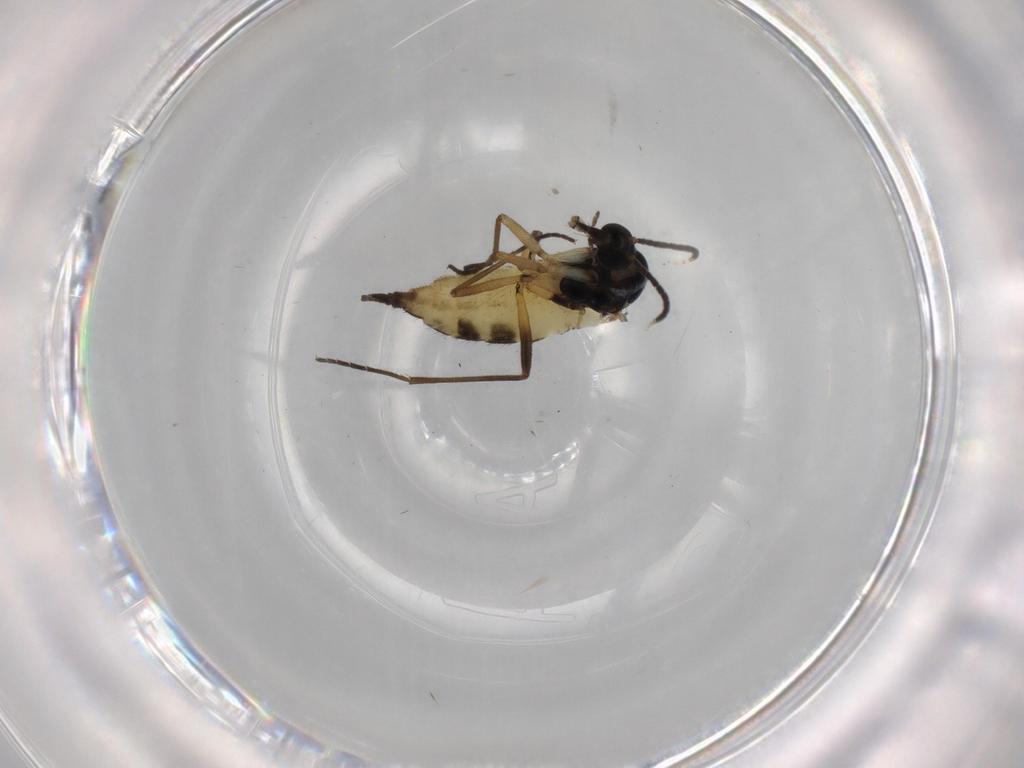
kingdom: Animalia
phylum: Arthropoda
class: Insecta
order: Diptera
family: Sciaridae
